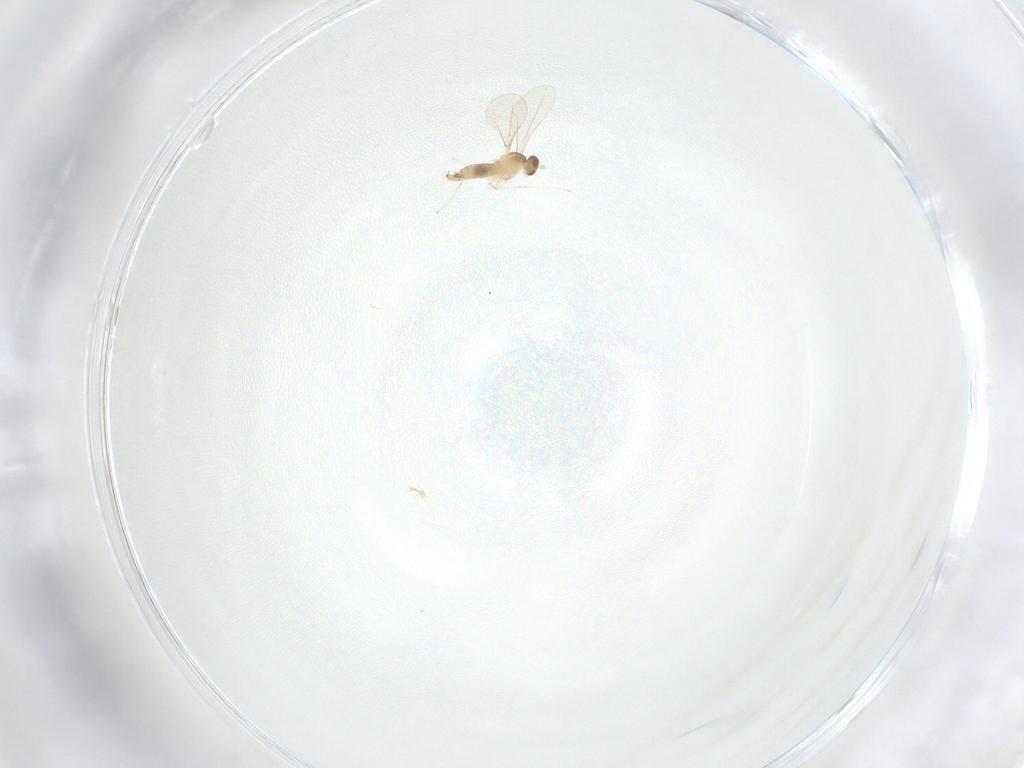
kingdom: Animalia
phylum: Arthropoda
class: Insecta
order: Diptera
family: Cecidomyiidae
